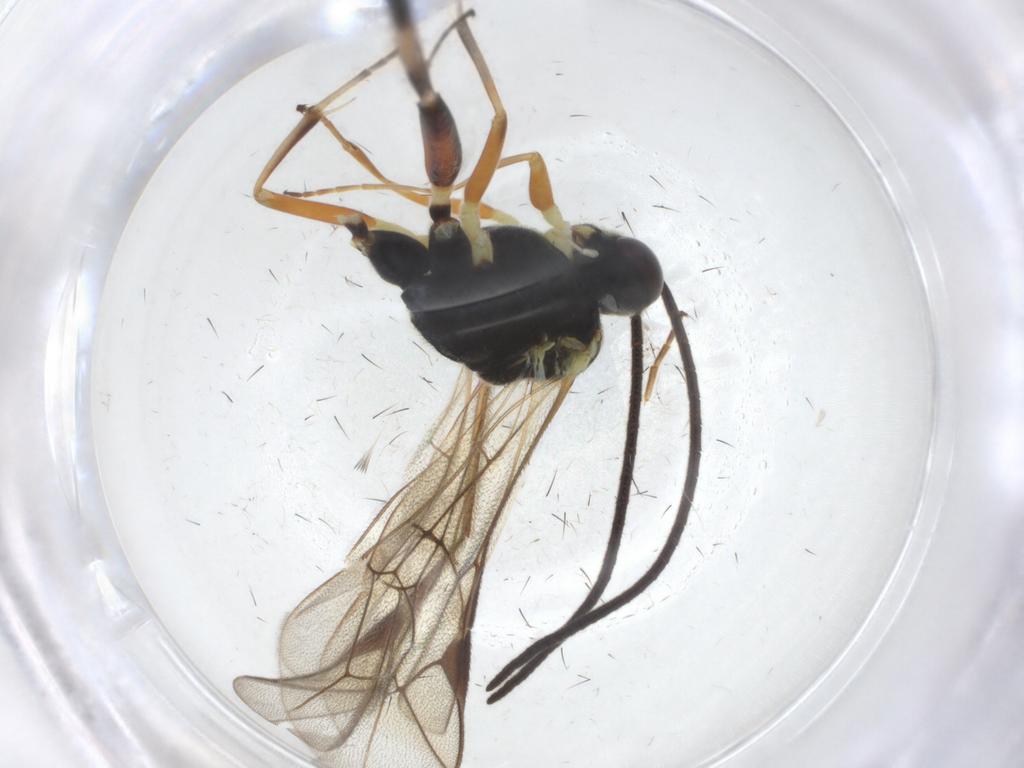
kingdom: Animalia
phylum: Arthropoda
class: Insecta
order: Hymenoptera
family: Ichneumonidae
